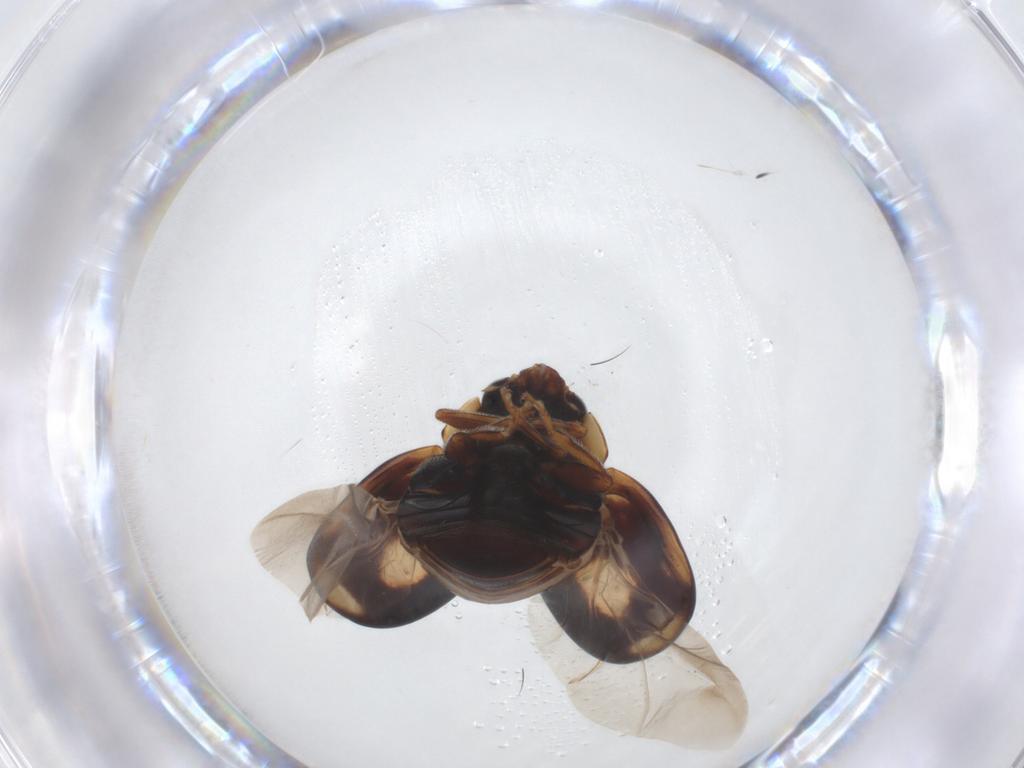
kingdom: Animalia
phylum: Arthropoda
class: Insecta
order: Coleoptera
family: Coccinellidae
